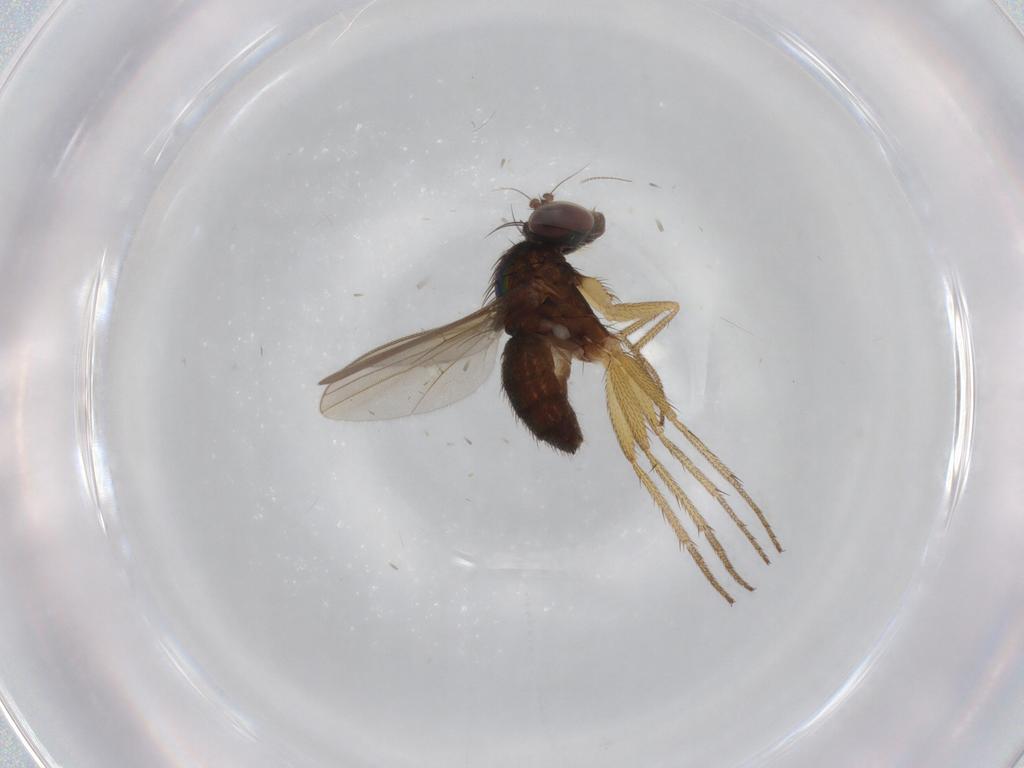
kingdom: Animalia
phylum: Arthropoda
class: Insecta
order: Diptera
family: Dolichopodidae
